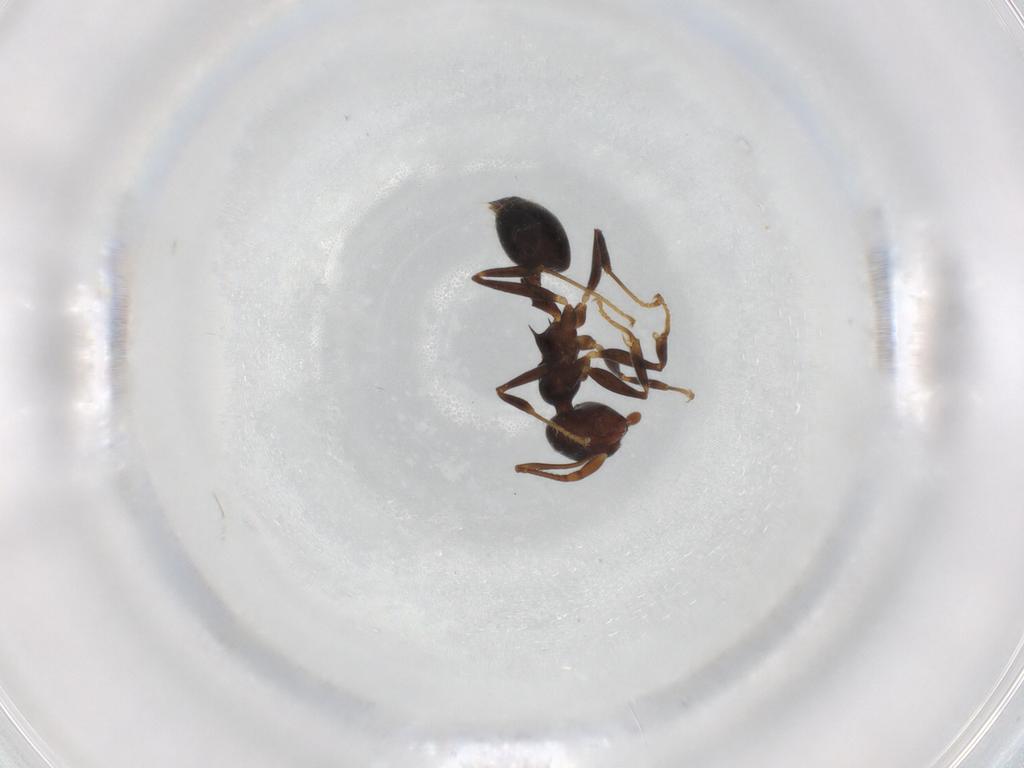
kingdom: Animalia
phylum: Arthropoda
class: Insecta
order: Hymenoptera
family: Formicidae
